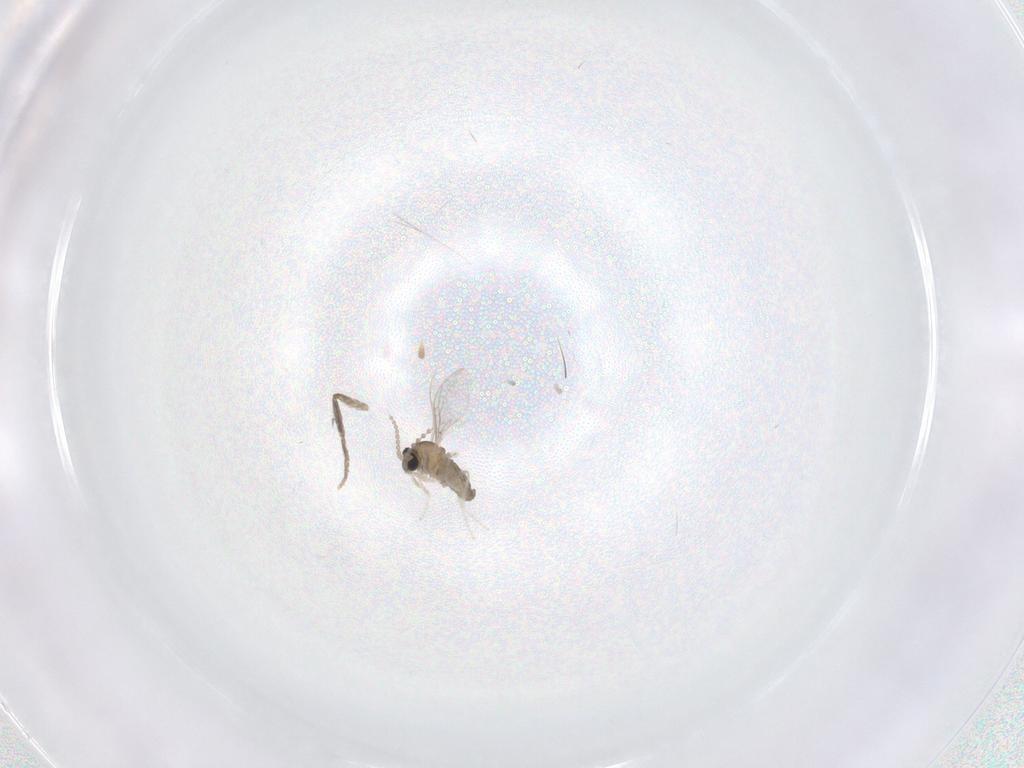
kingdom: Animalia
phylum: Arthropoda
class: Insecta
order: Diptera
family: Psychodidae
